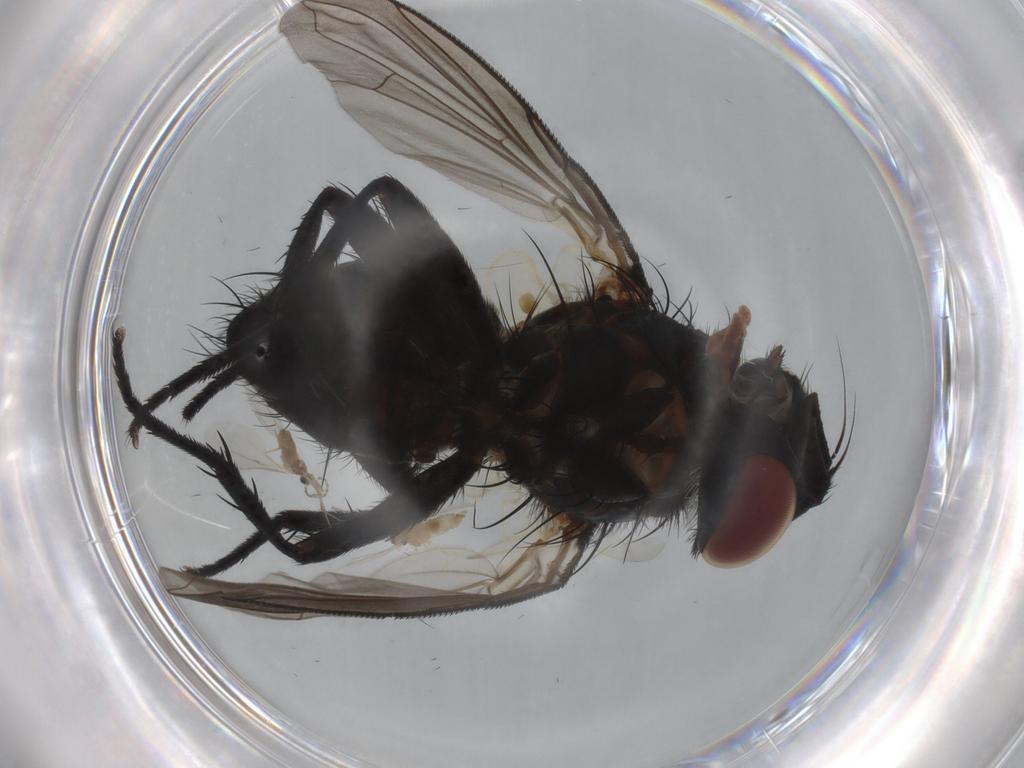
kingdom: Animalia
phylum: Arthropoda
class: Insecta
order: Diptera
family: Tachinidae
